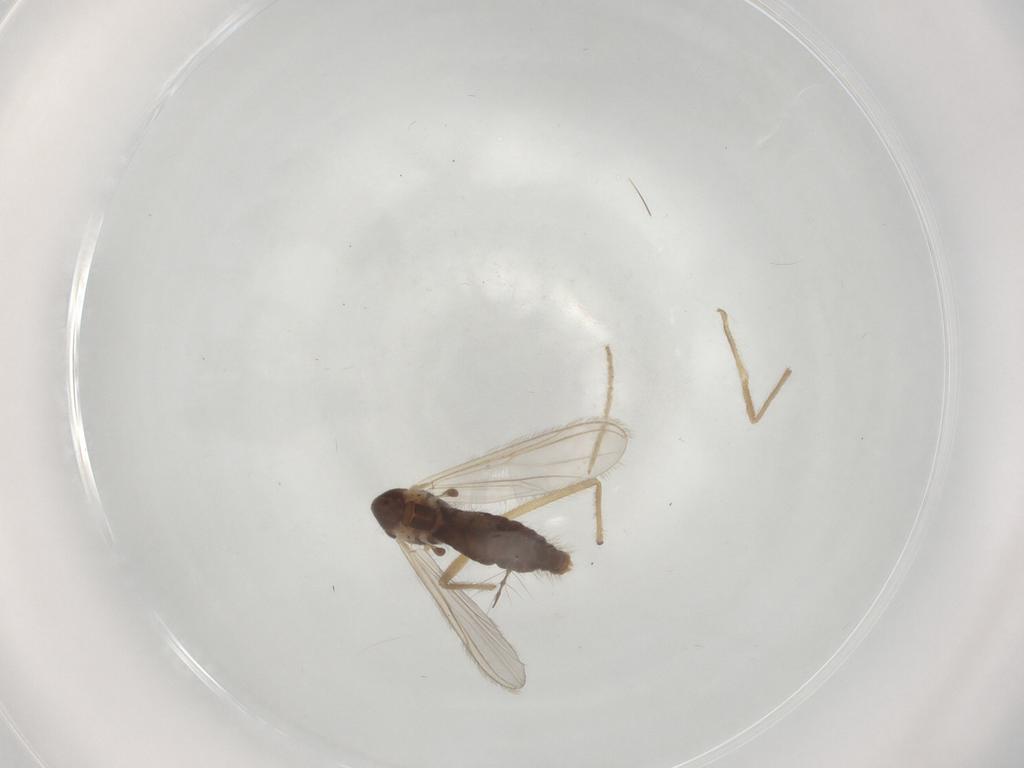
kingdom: Animalia
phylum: Arthropoda
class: Insecta
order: Diptera
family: Chironomidae
